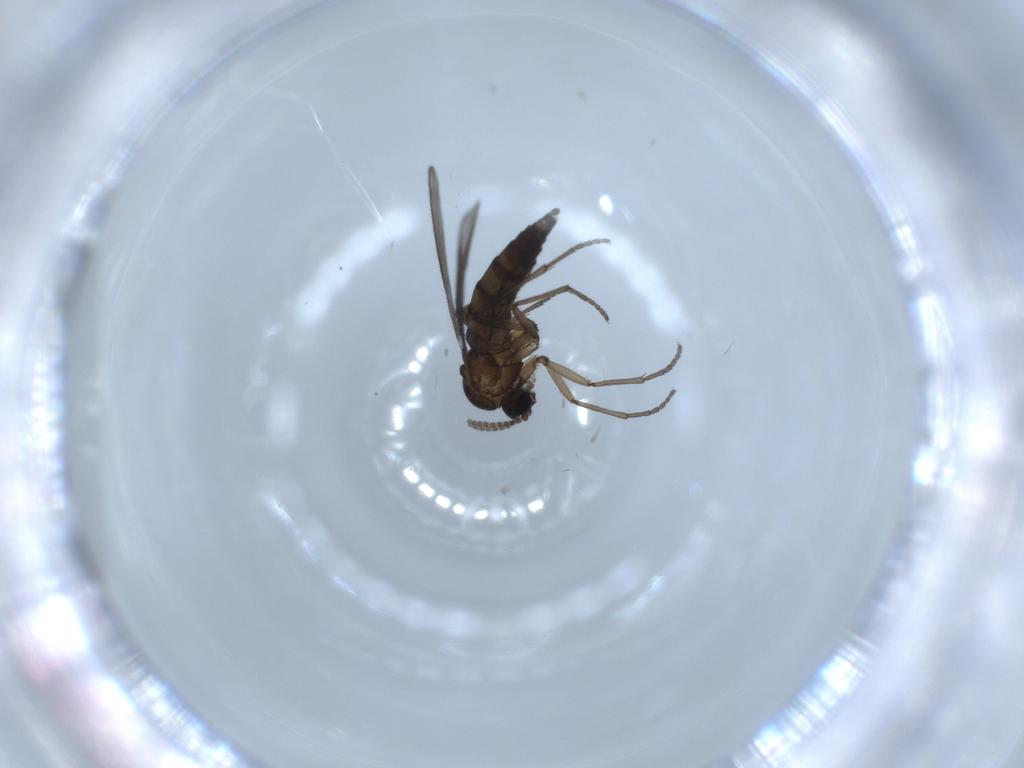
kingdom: Animalia
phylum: Arthropoda
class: Insecta
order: Diptera
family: Sciaridae
